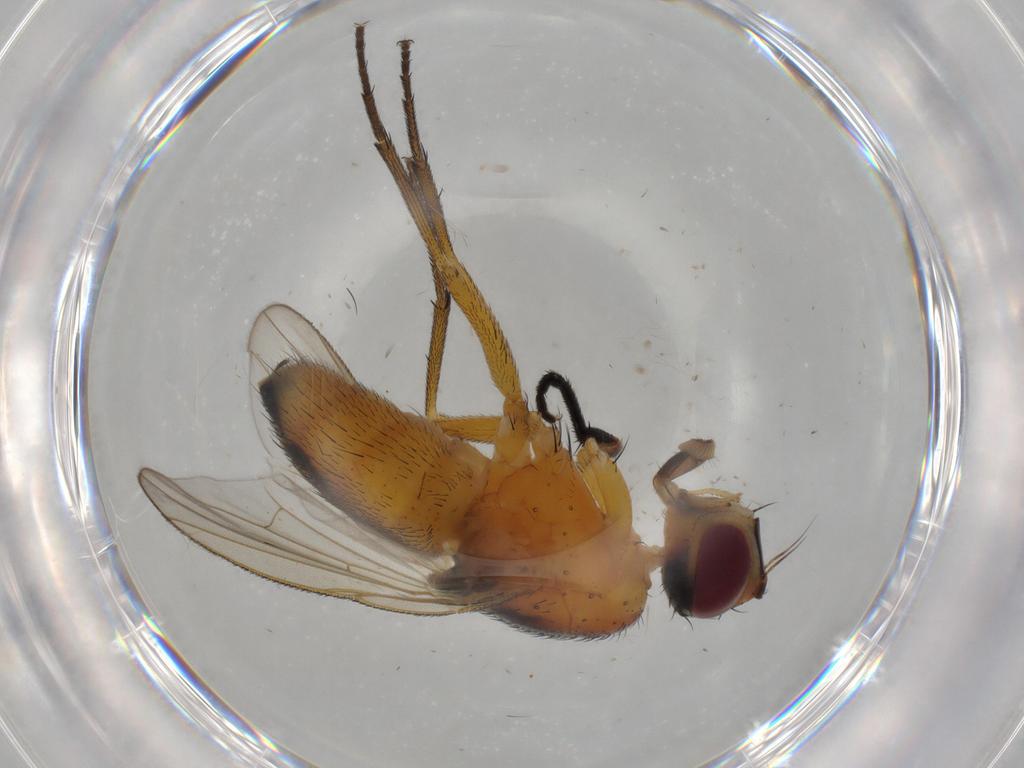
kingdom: Animalia
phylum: Arthropoda
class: Insecta
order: Diptera
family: Muscidae
